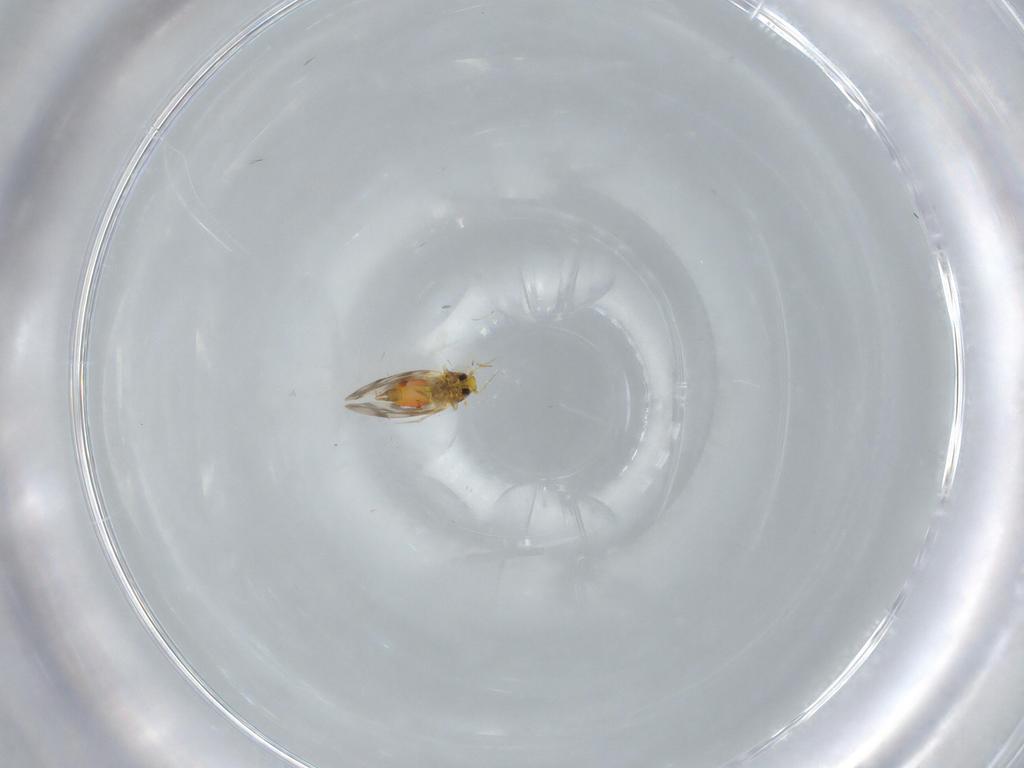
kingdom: Animalia
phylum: Arthropoda
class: Insecta
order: Hemiptera
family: Aleyrodidae
